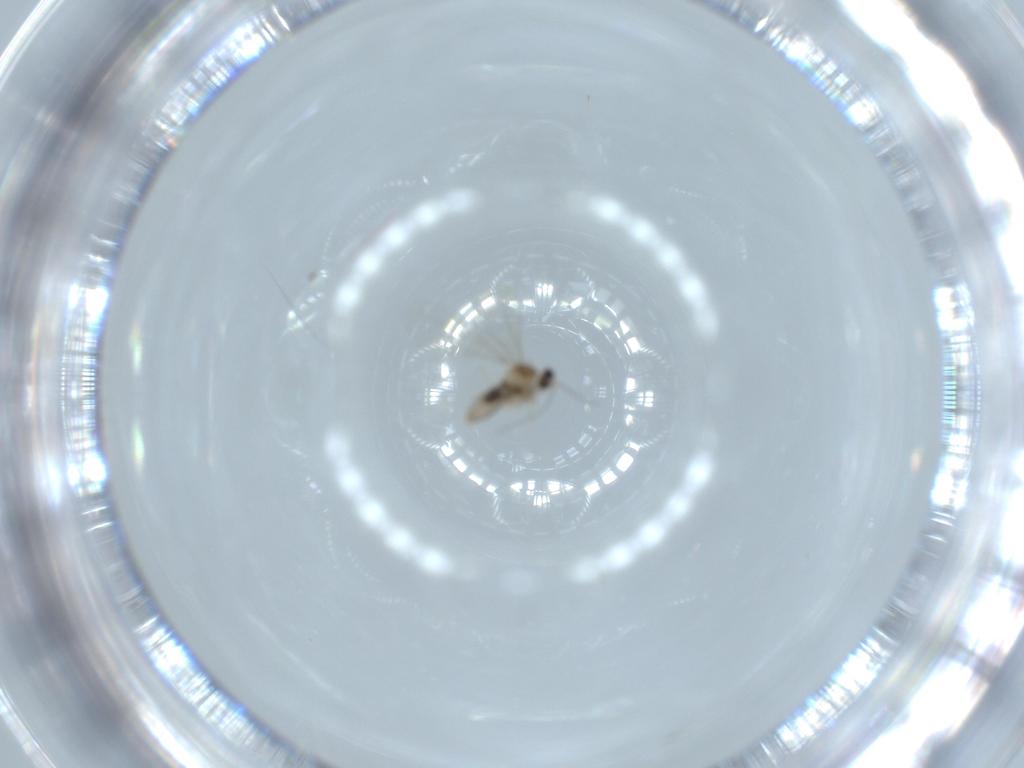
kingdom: Animalia
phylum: Arthropoda
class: Insecta
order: Diptera
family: Cecidomyiidae
